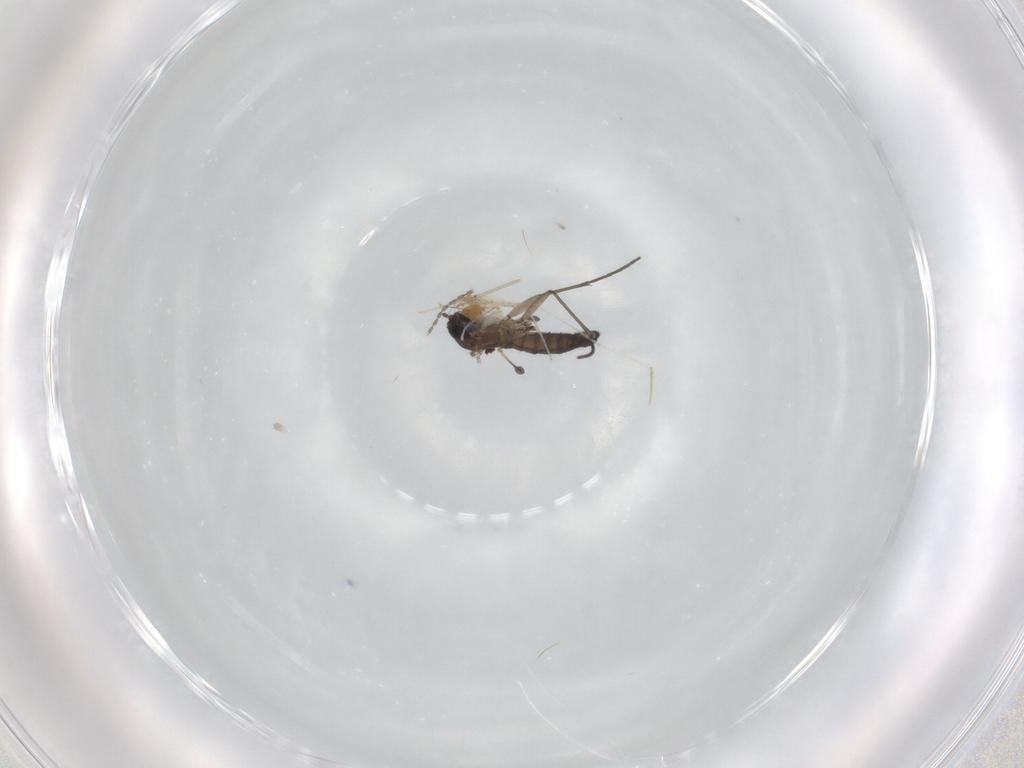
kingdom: Animalia
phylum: Arthropoda
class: Insecta
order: Diptera
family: Sciaridae
